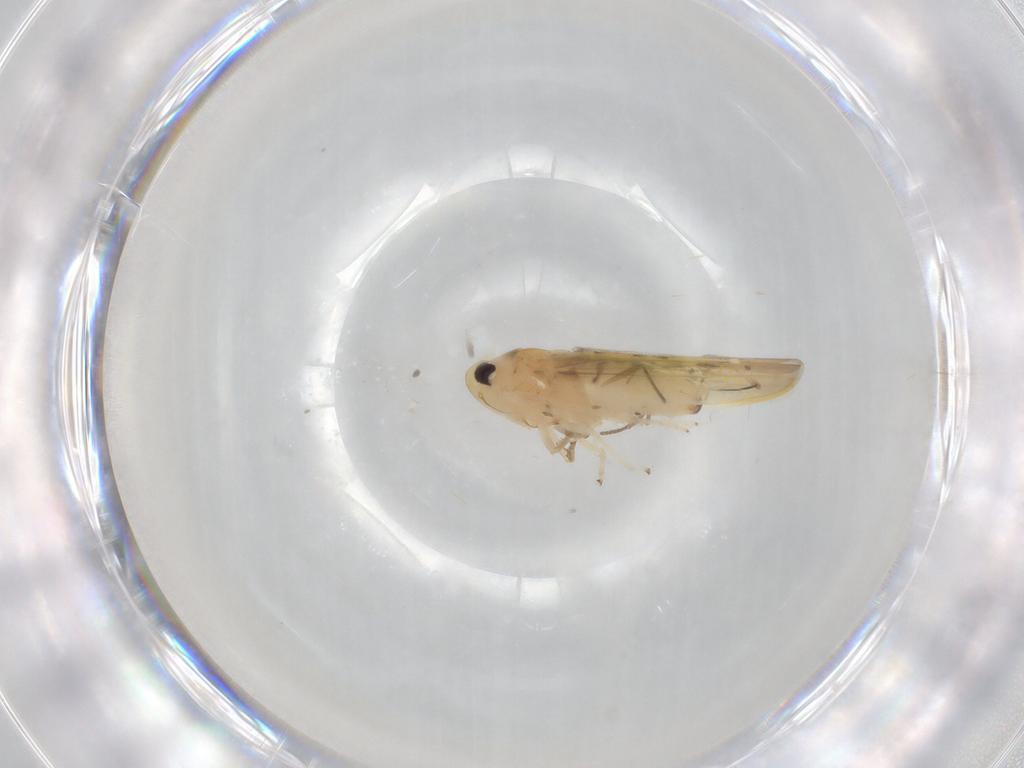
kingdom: Animalia
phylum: Arthropoda
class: Insecta
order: Hemiptera
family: Cicadellidae
